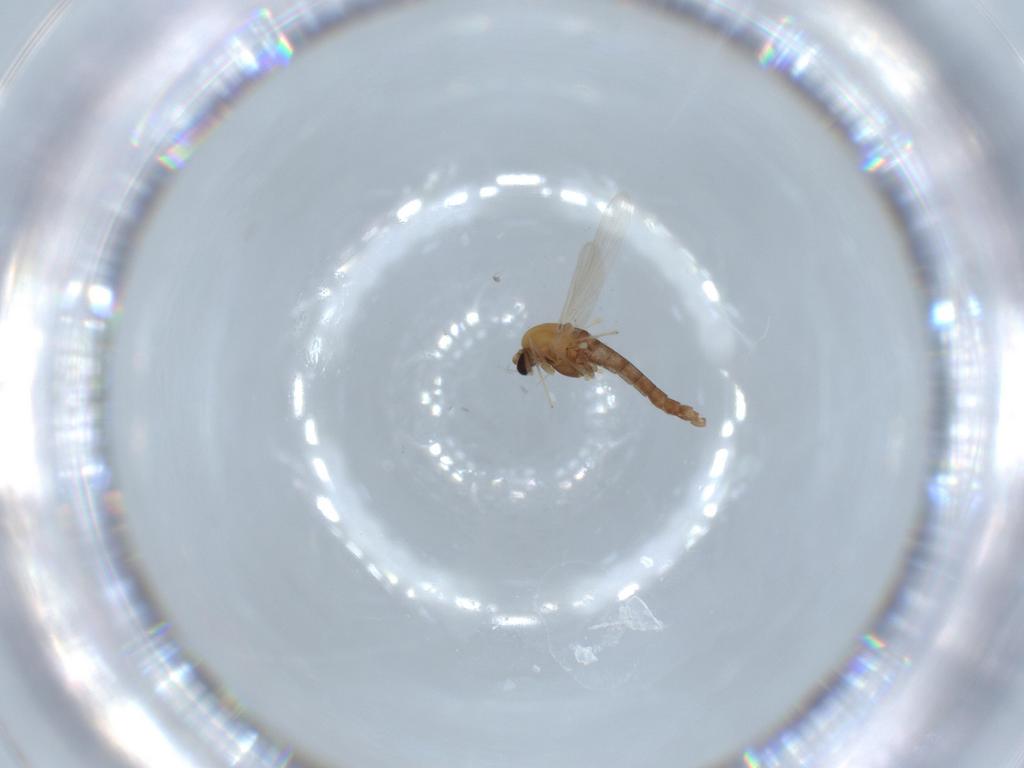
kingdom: Animalia
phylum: Arthropoda
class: Insecta
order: Diptera
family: Chironomidae
